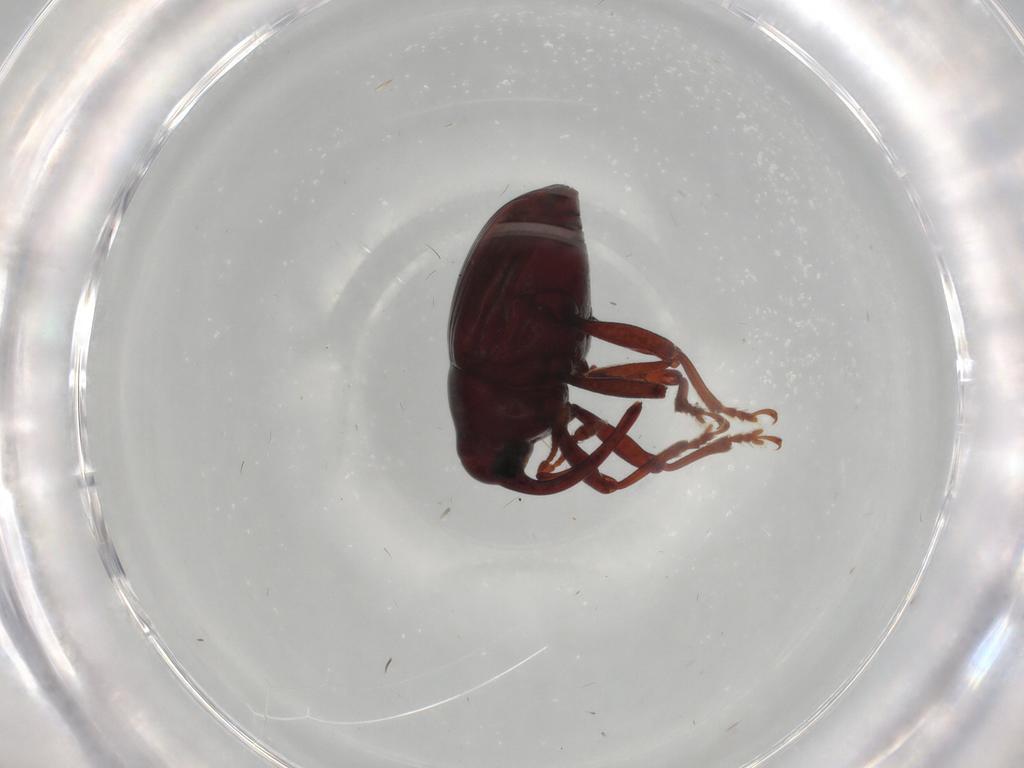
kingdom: Animalia
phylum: Arthropoda
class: Insecta
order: Coleoptera
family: Curculionidae
